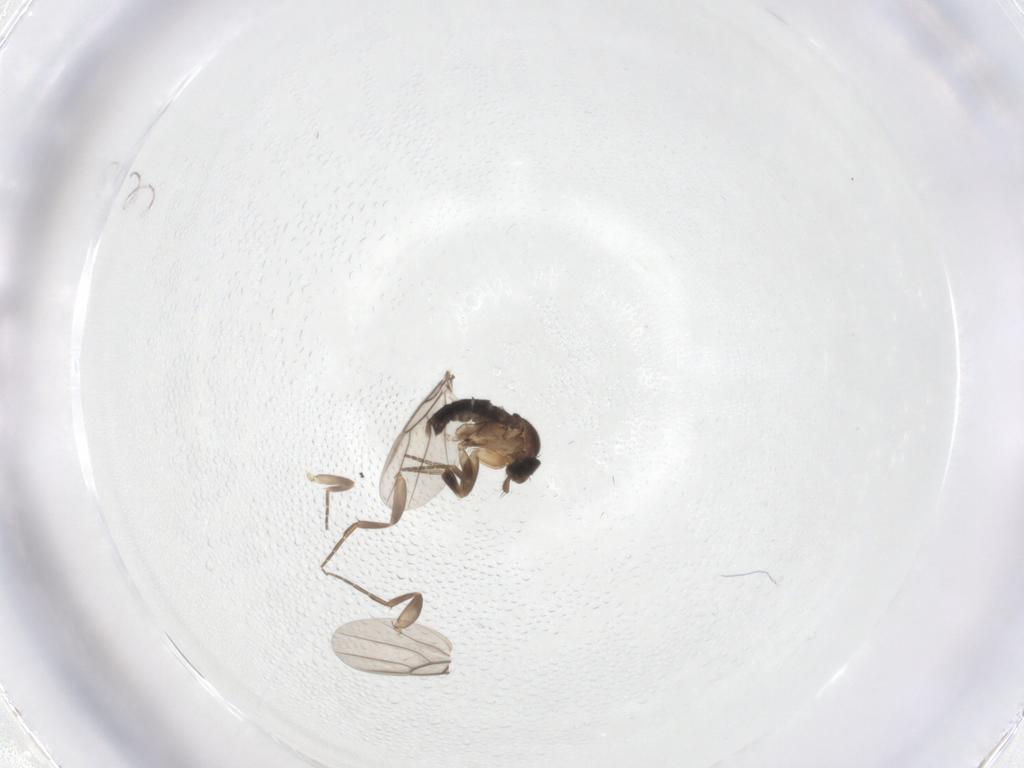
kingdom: Animalia
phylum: Arthropoda
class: Insecta
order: Diptera
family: Phoridae
